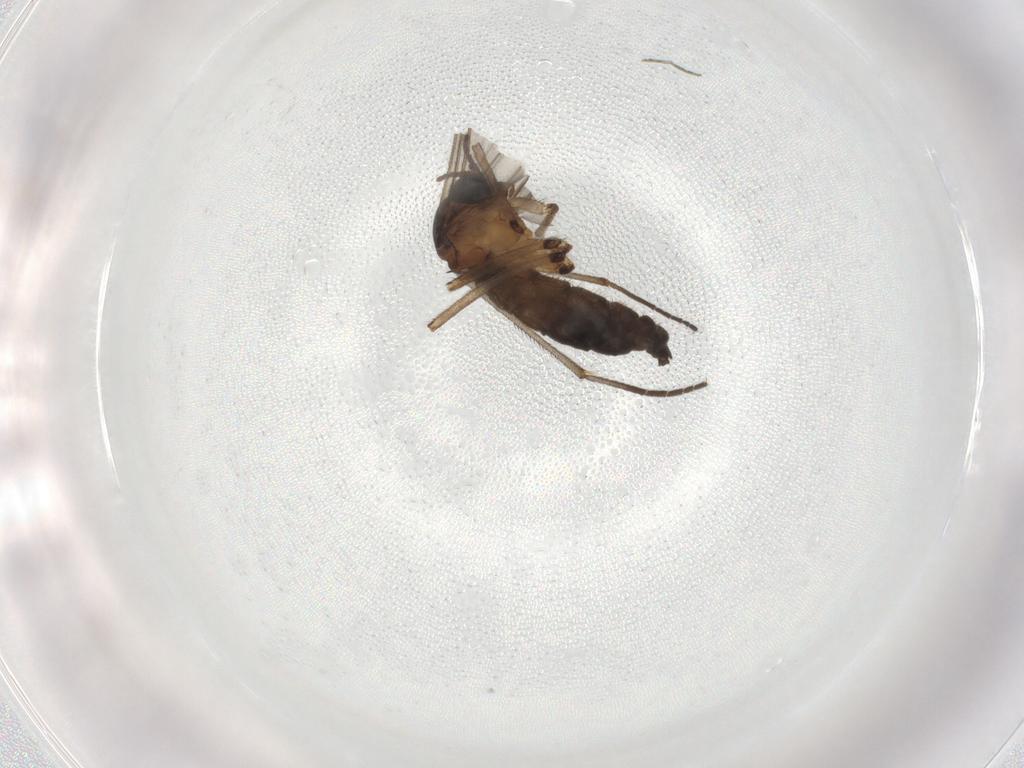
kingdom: Animalia
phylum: Arthropoda
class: Insecta
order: Diptera
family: Sciaridae
